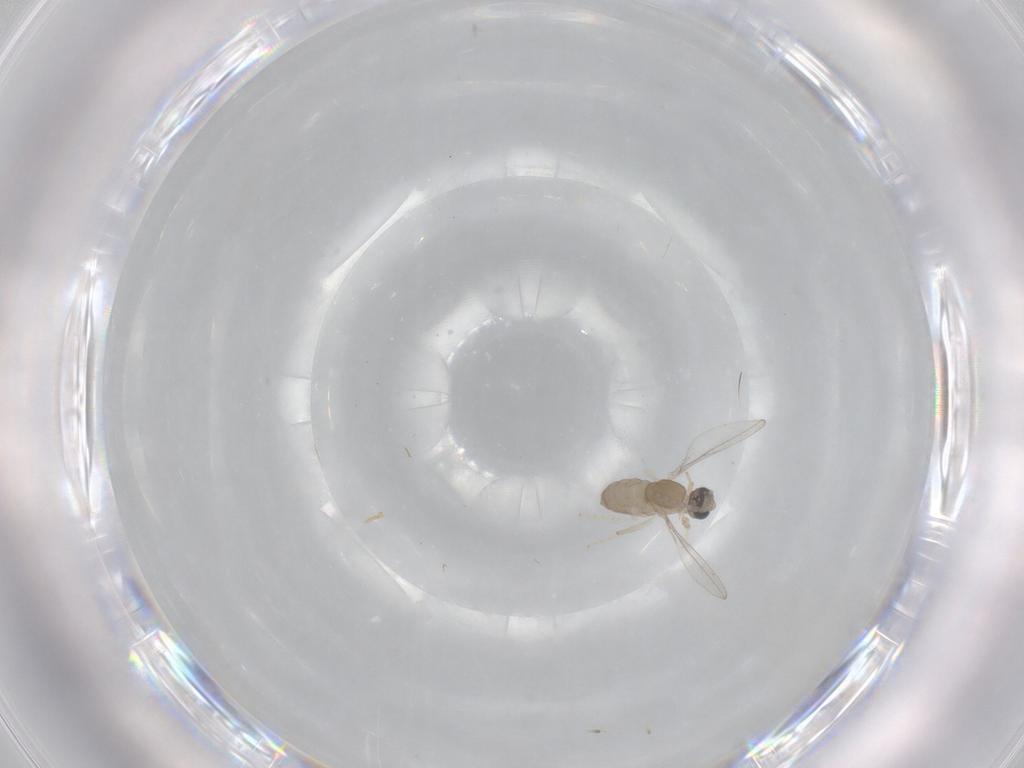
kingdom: Animalia
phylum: Arthropoda
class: Insecta
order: Diptera
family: Cecidomyiidae
